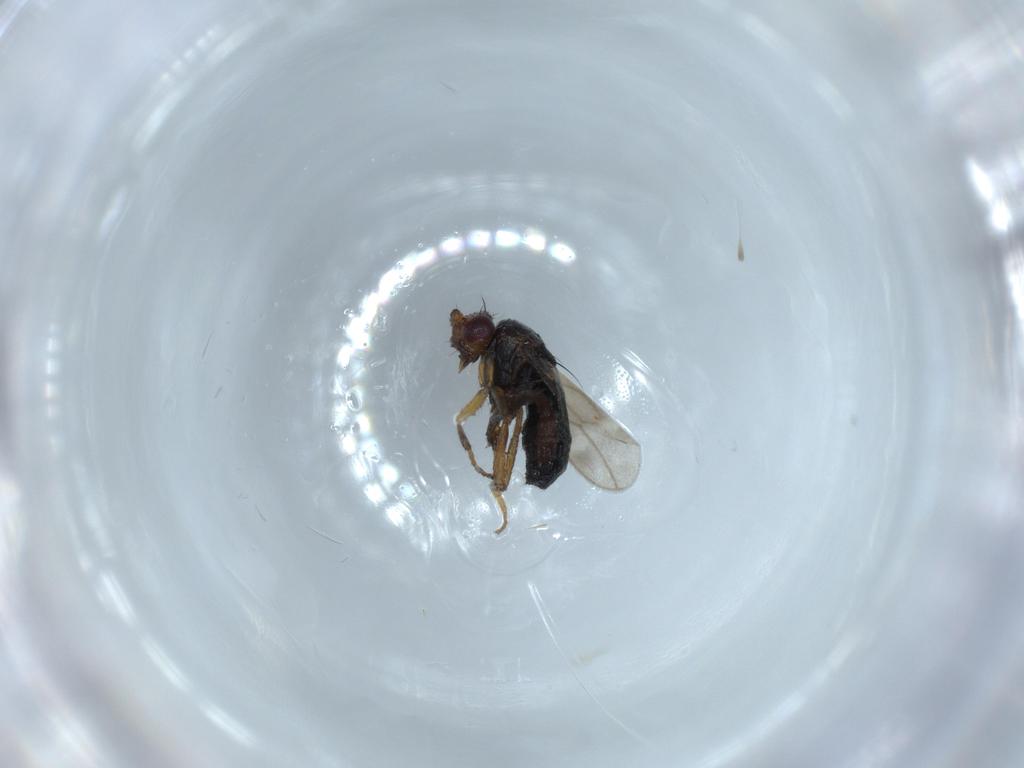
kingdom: Animalia
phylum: Arthropoda
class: Insecta
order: Diptera
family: Sphaeroceridae
